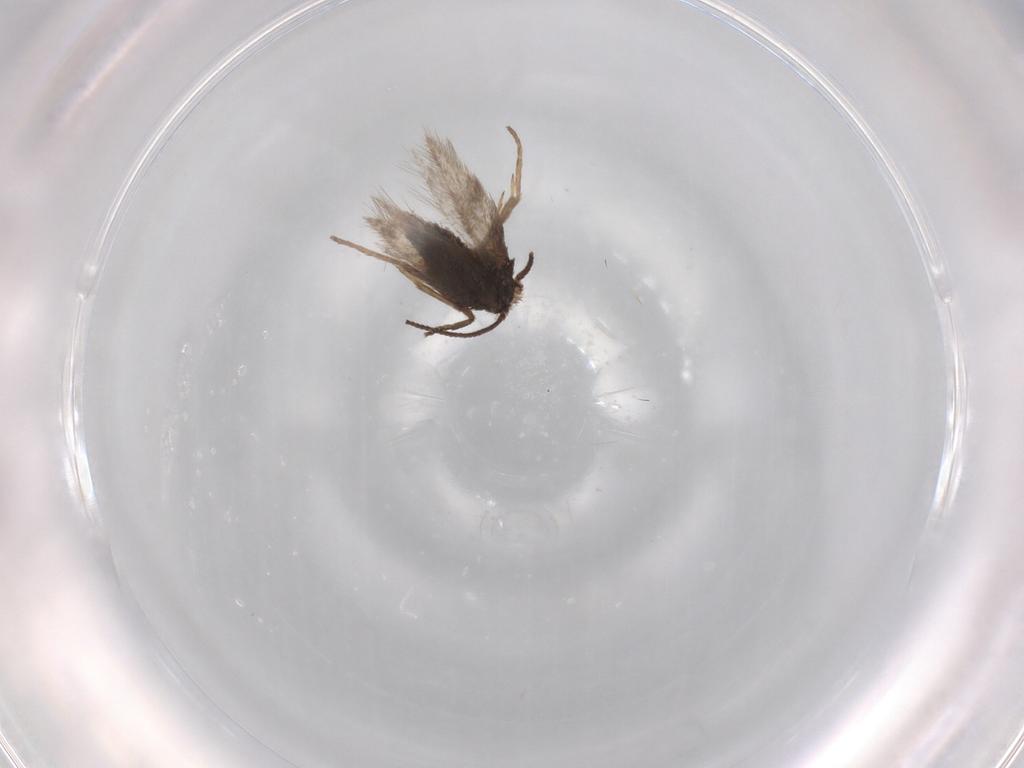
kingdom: Animalia
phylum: Arthropoda
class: Insecta
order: Lepidoptera
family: Nepticulidae
